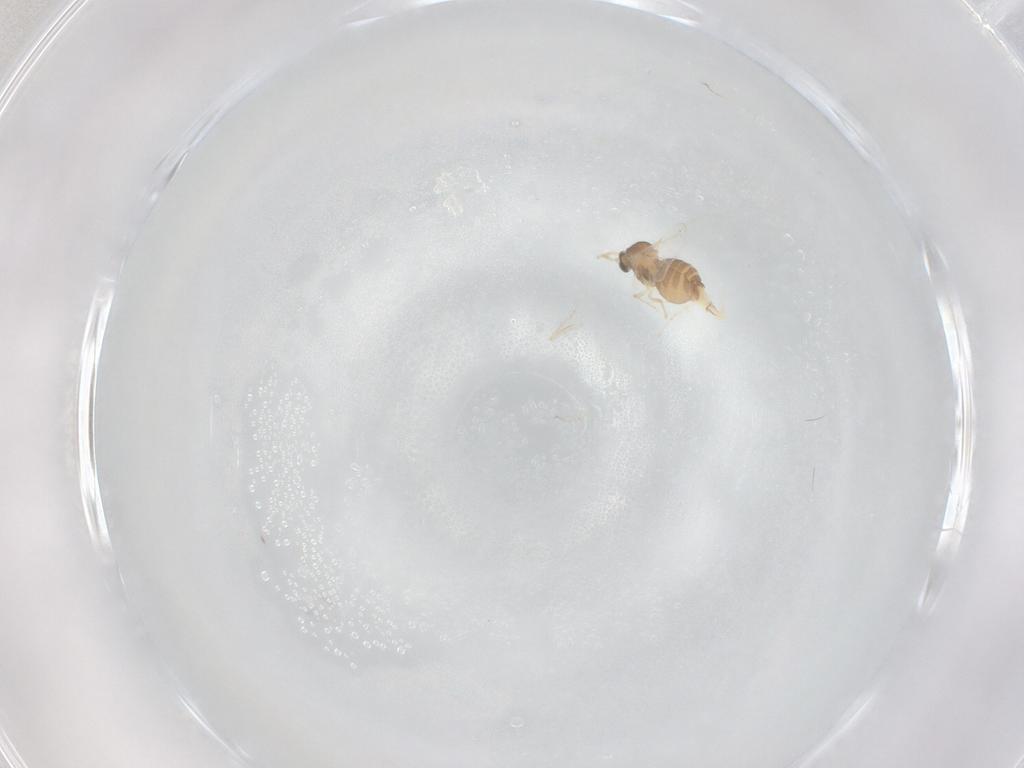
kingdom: Animalia
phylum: Arthropoda
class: Insecta
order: Diptera
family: Cecidomyiidae
